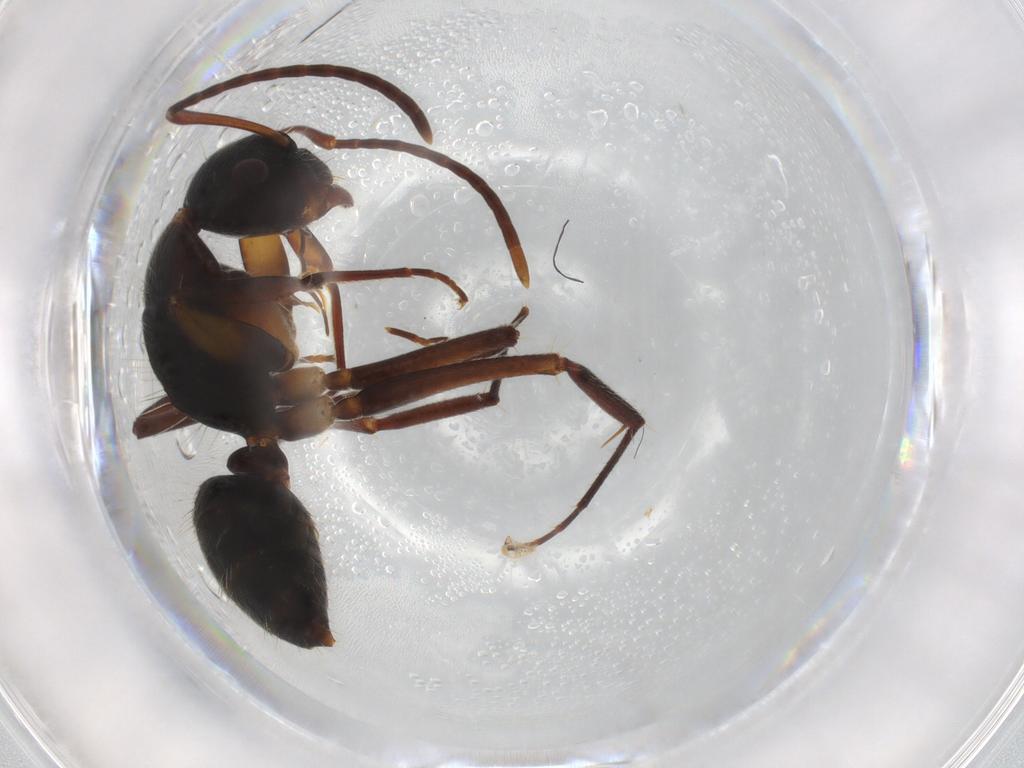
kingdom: Animalia
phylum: Arthropoda
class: Insecta
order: Hymenoptera
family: Formicidae
